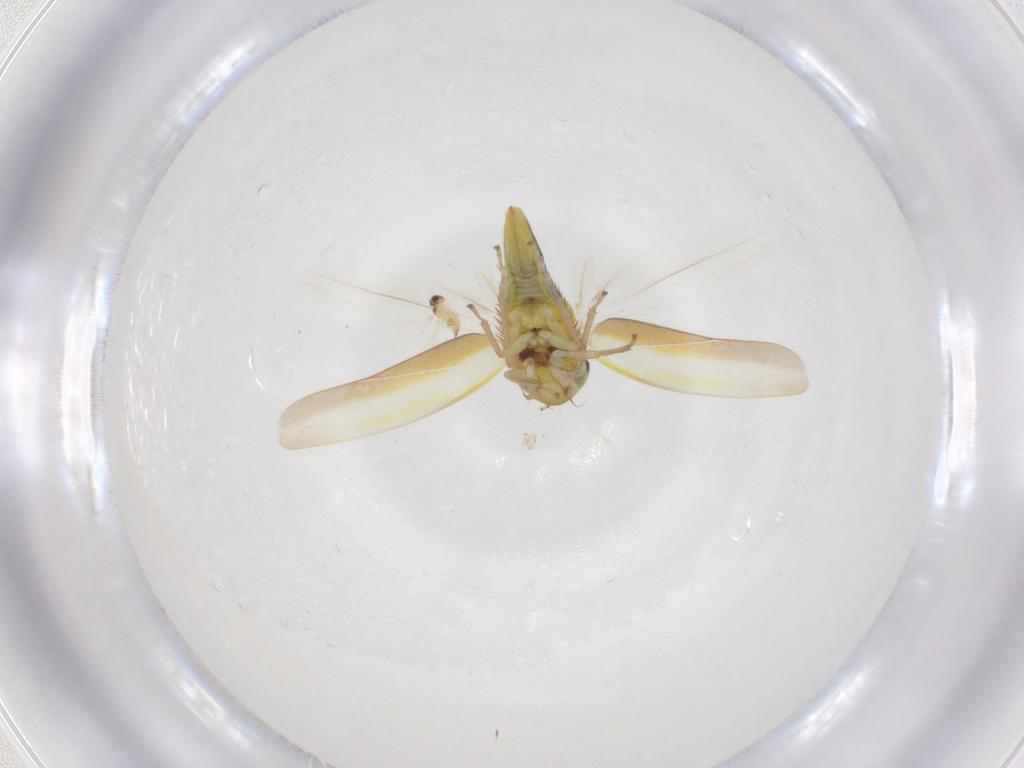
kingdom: Animalia
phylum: Arthropoda
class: Insecta
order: Hemiptera
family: Cicadellidae
